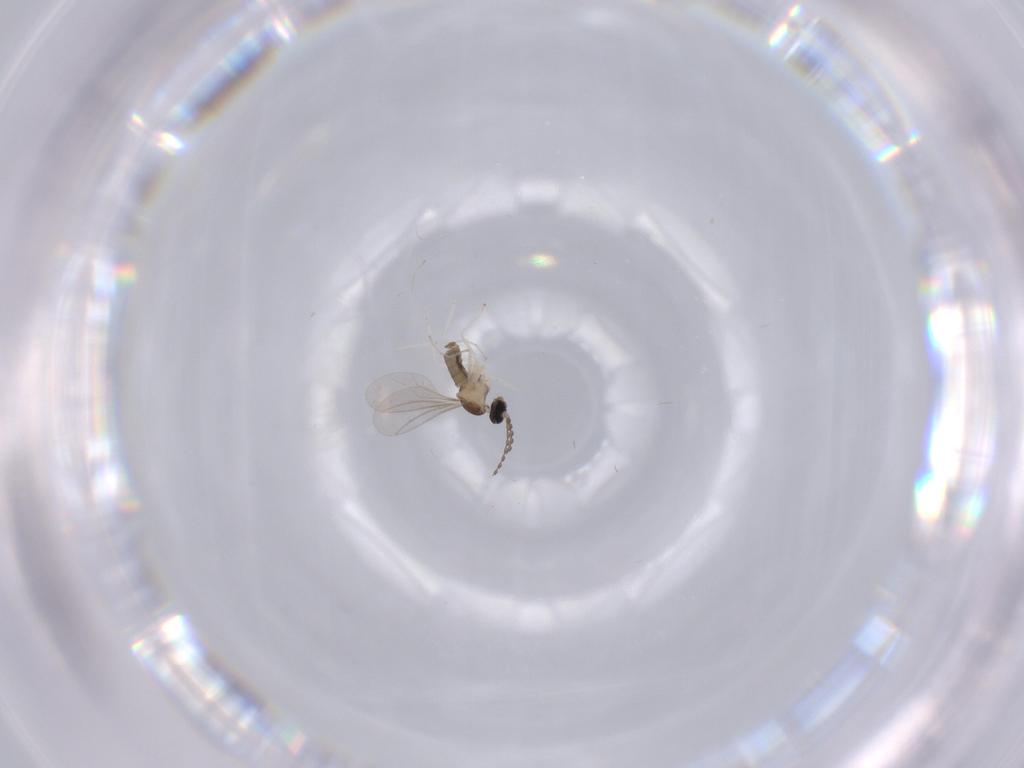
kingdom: Animalia
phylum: Arthropoda
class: Insecta
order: Diptera
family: Cecidomyiidae
